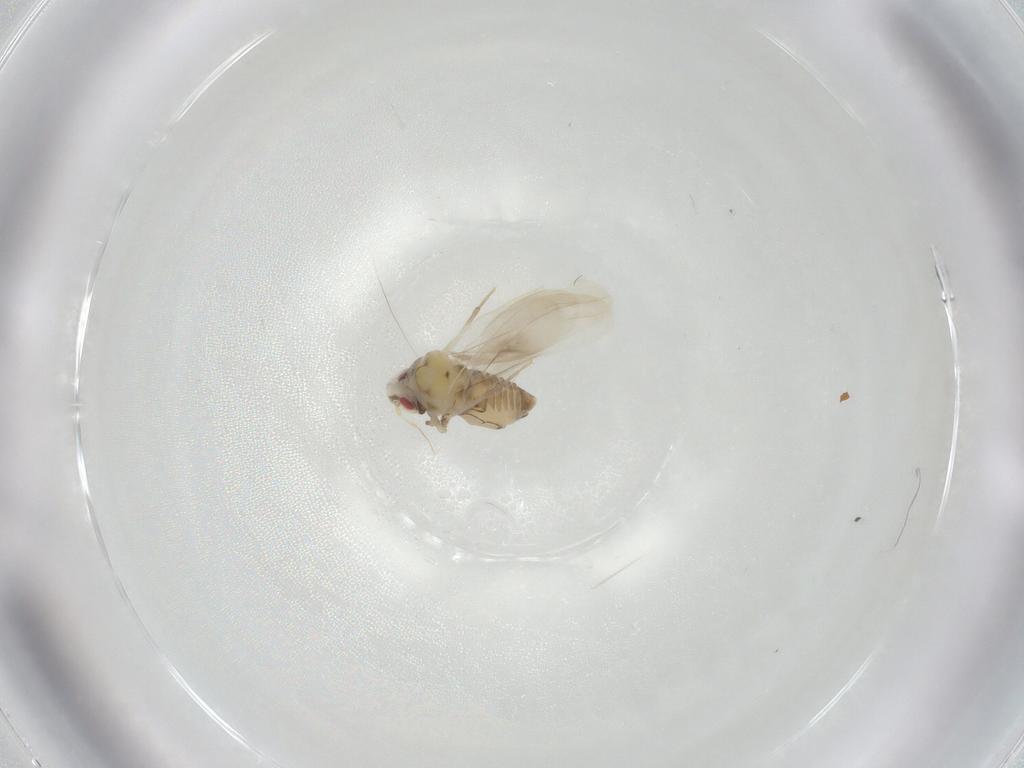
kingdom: Animalia
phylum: Arthropoda
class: Insecta
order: Hemiptera
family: Aleyrodidae
